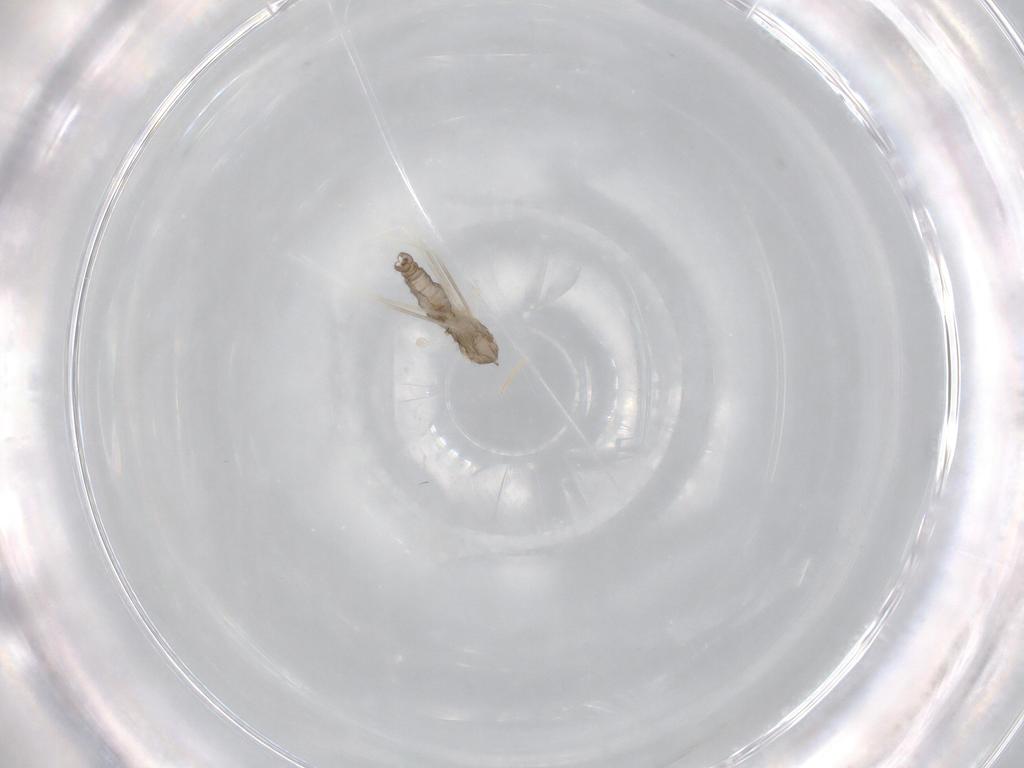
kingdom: Animalia
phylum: Arthropoda
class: Insecta
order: Diptera
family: Cecidomyiidae
